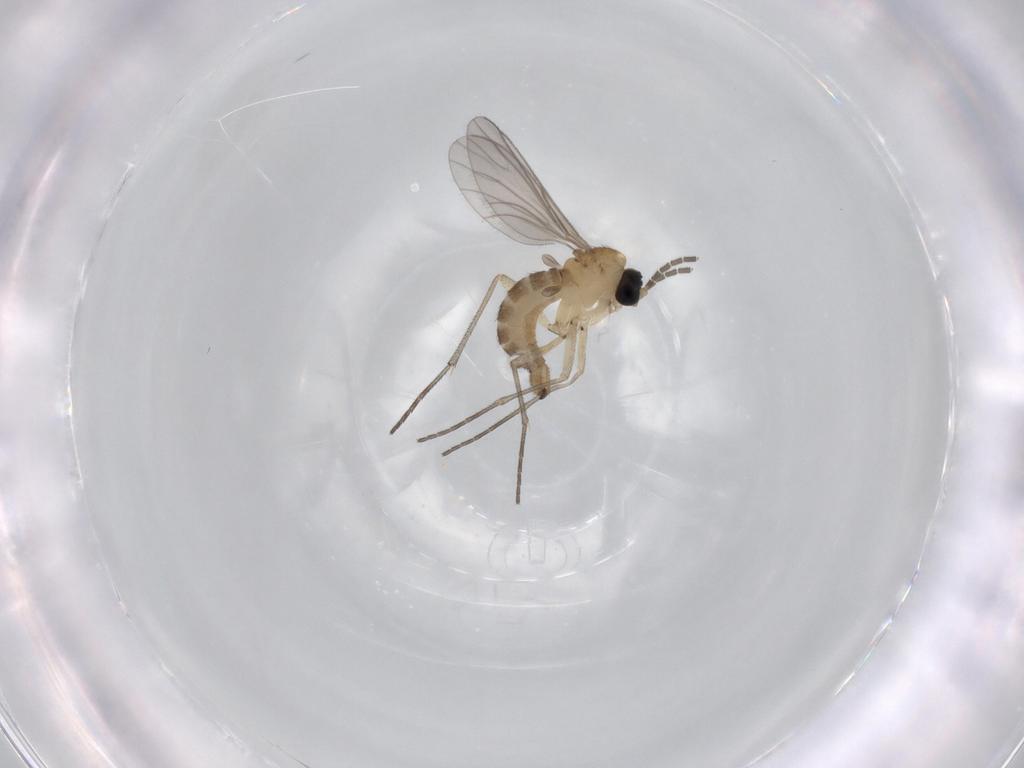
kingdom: Animalia
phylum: Arthropoda
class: Insecta
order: Diptera
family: Sciaridae
